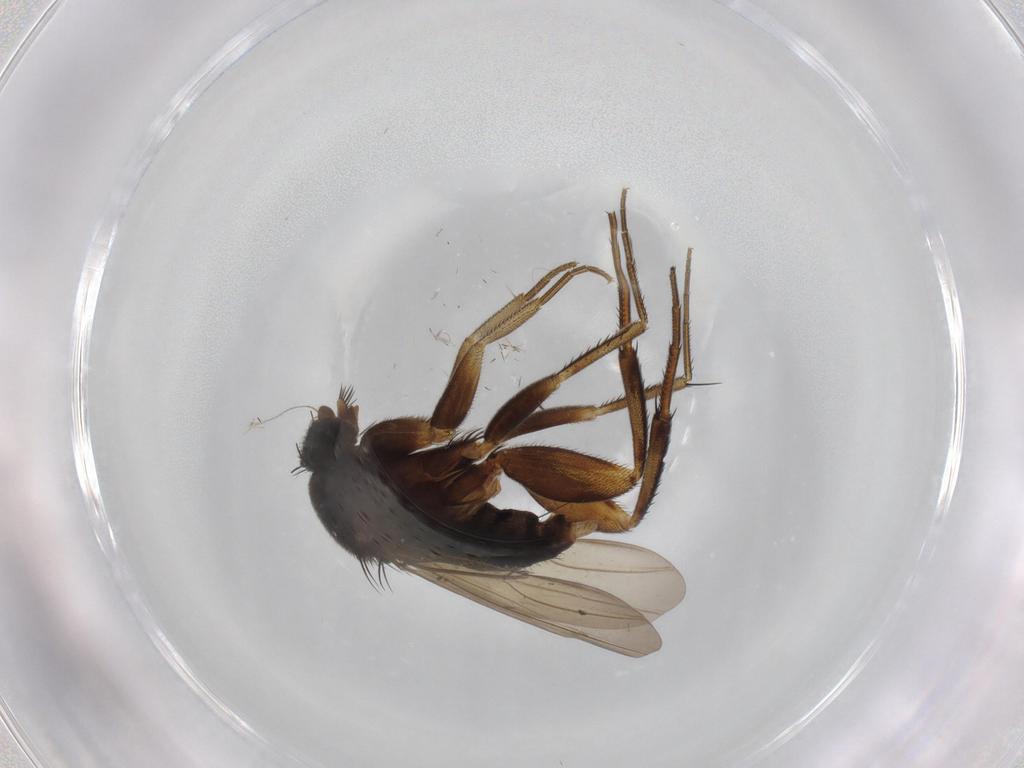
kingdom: Animalia
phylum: Arthropoda
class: Insecta
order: Diptera
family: Phoridae
